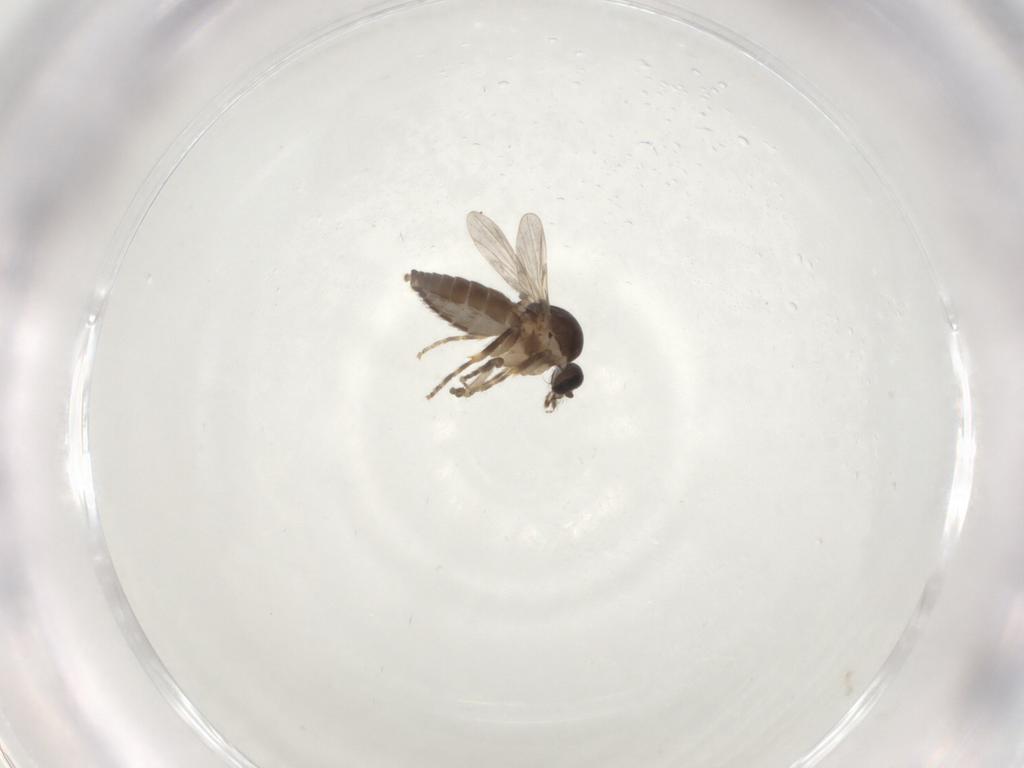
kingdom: Animalia
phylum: Arthropoda
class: Insecta
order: Diptera
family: Ceratopogonidae
